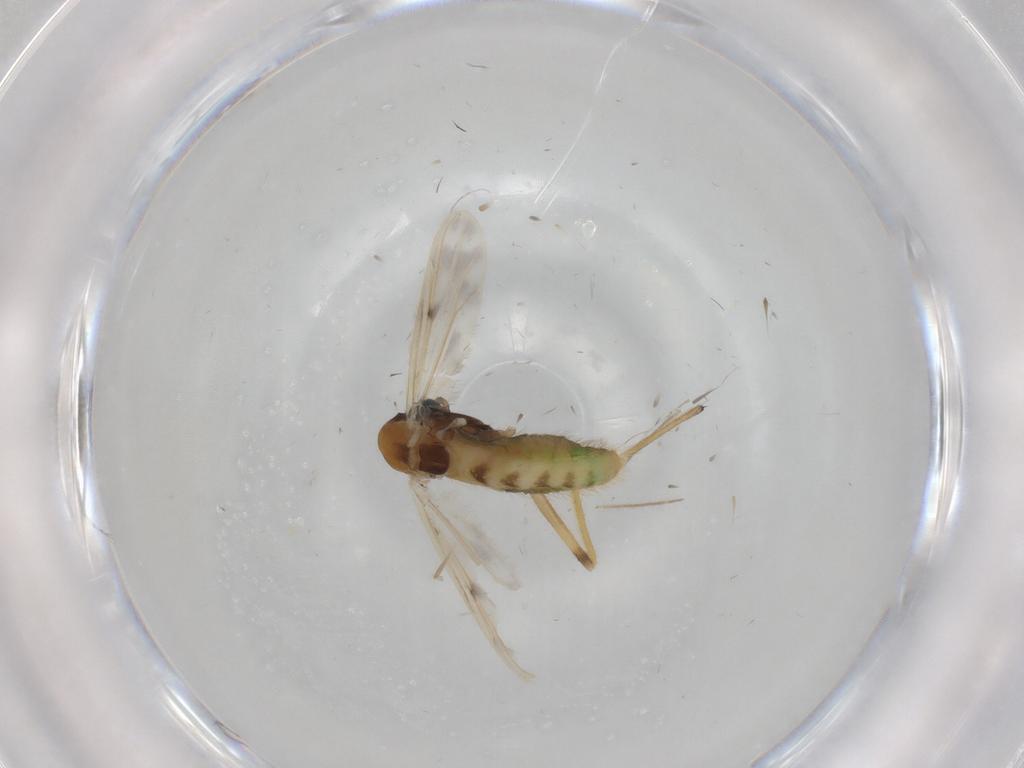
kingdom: Animalia
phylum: Arthropoda
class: Insecta
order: Diptera
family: Chironomidae
